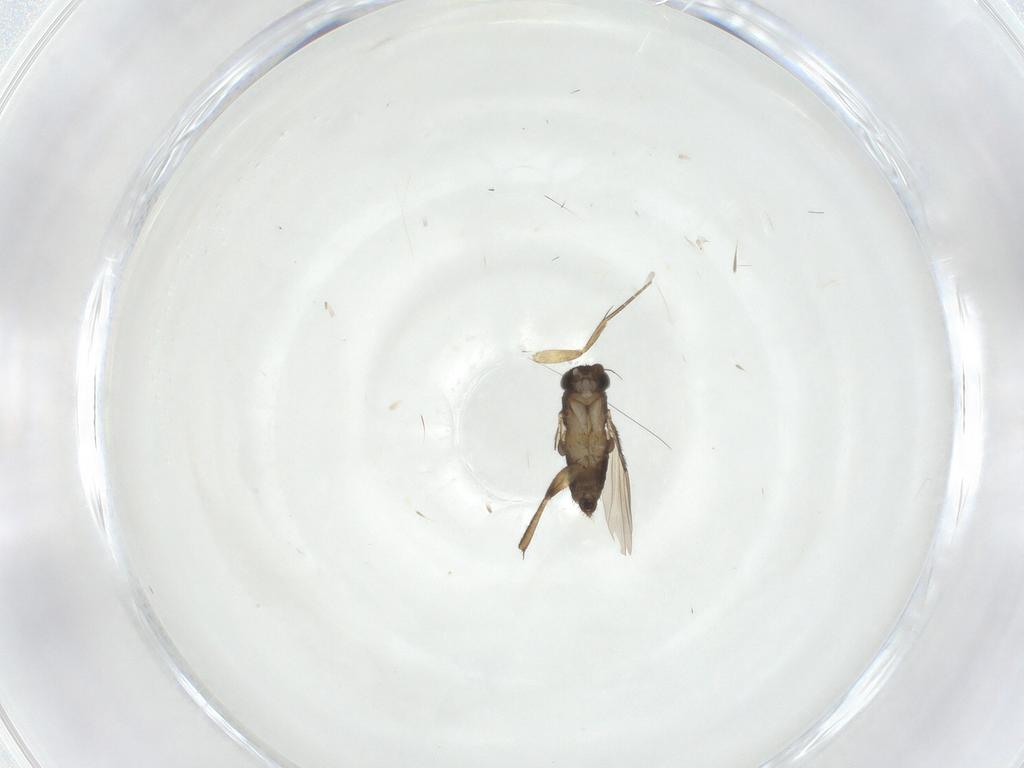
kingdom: Animalia
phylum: Arthropoda
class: Insecta
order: Diptera
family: Phoridae
